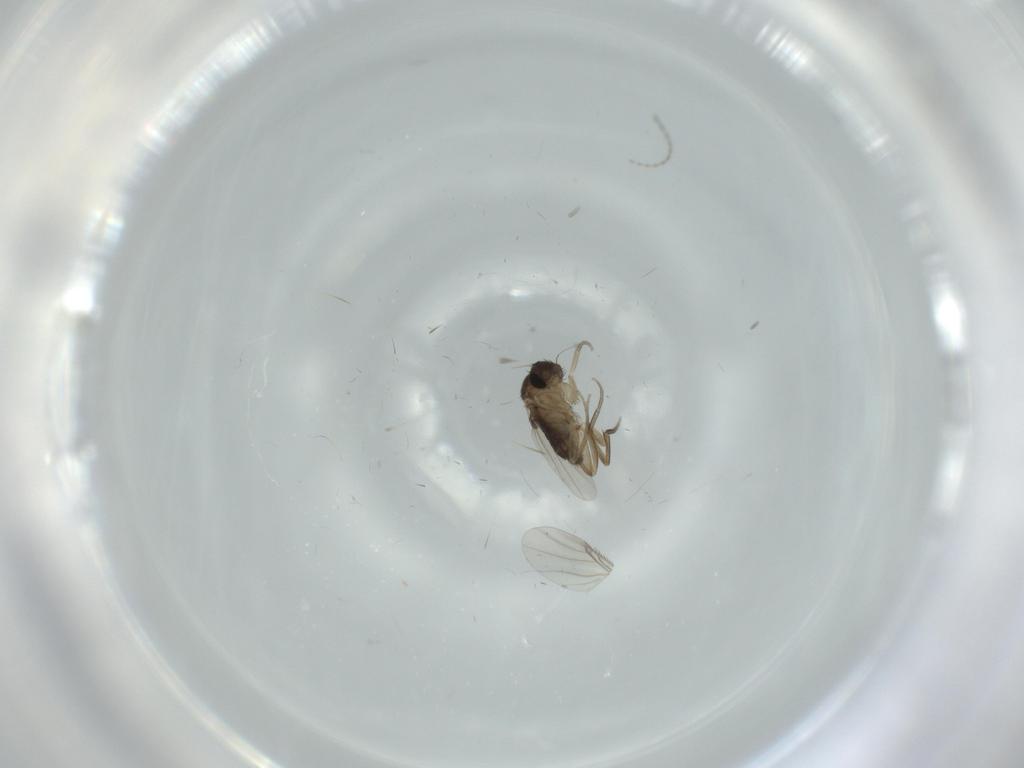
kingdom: Animalia
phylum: Arthropoda
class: Insecta
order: Diptera
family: Phoridae
